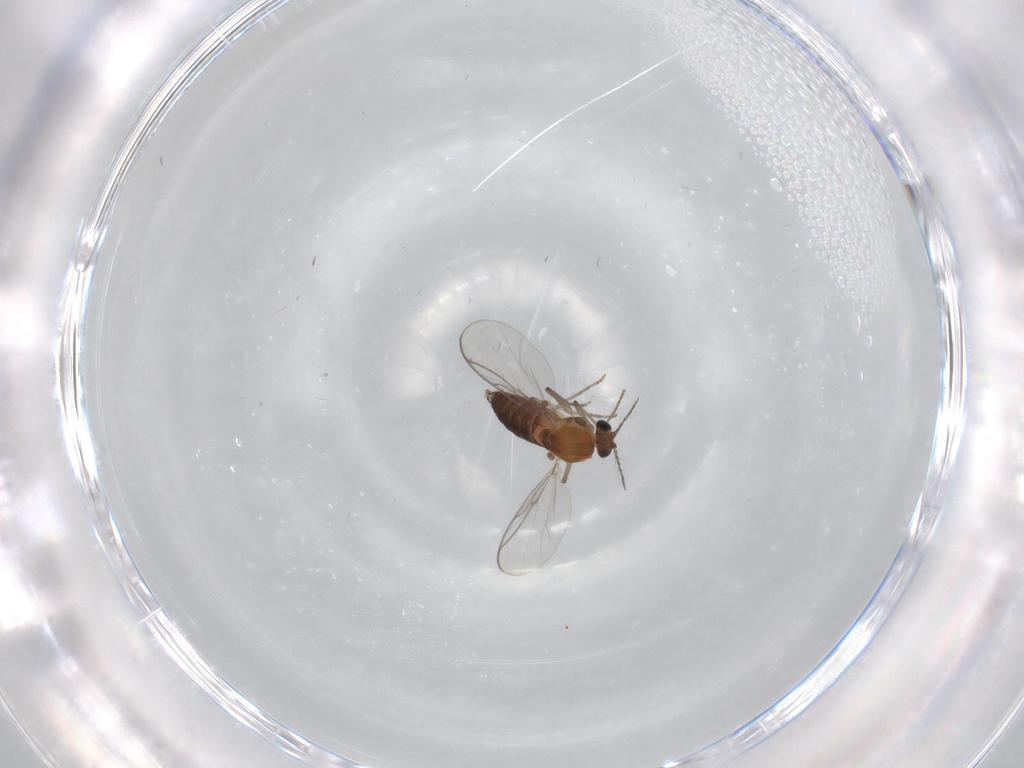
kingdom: Animalia
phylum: Arthropoda
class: Insecta
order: Diptera
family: Chironomidae
